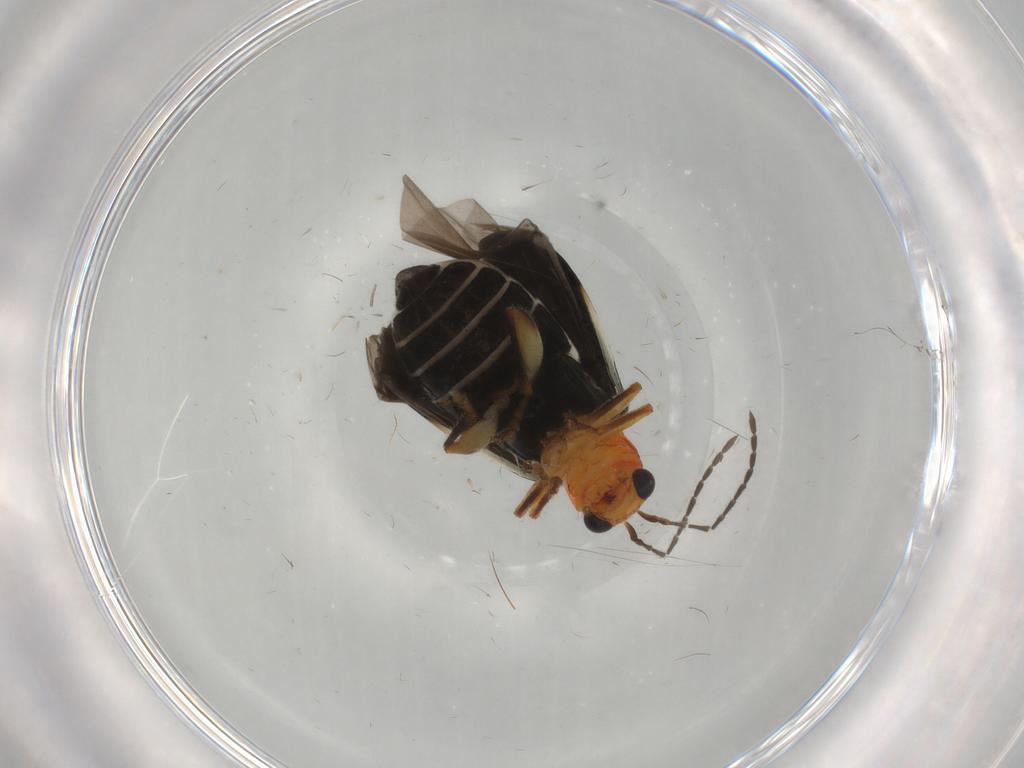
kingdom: Animalia
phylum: Arthropoda
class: Insecta
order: Coleoptera
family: Chrysomelidae
